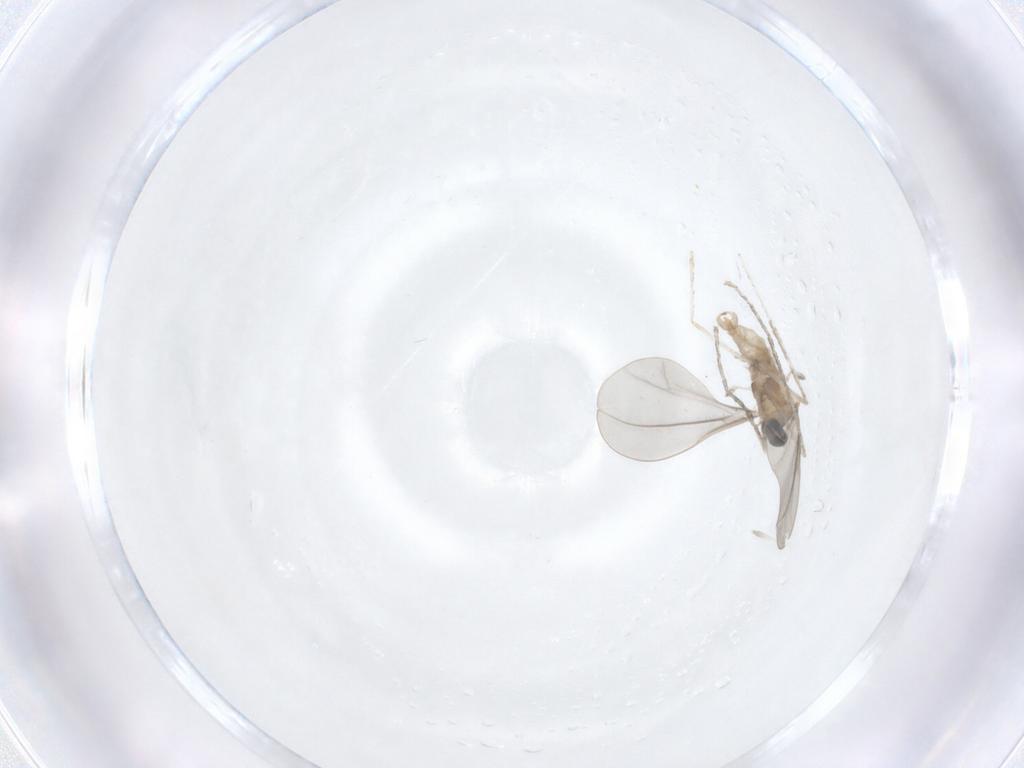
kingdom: Animalia
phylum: Arthropoda
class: Insecta
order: Diptera
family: Cecidomyiidae
